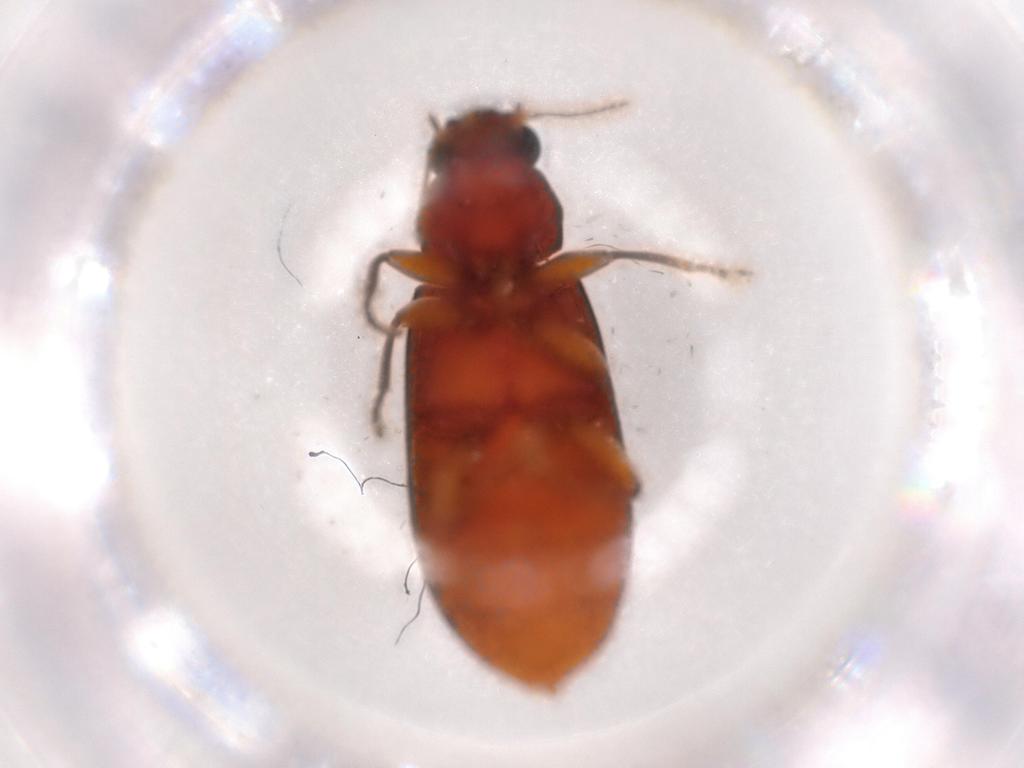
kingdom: Animalia
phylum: Arthropoda
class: Insecta
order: Coleoptera
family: Mycteridae
